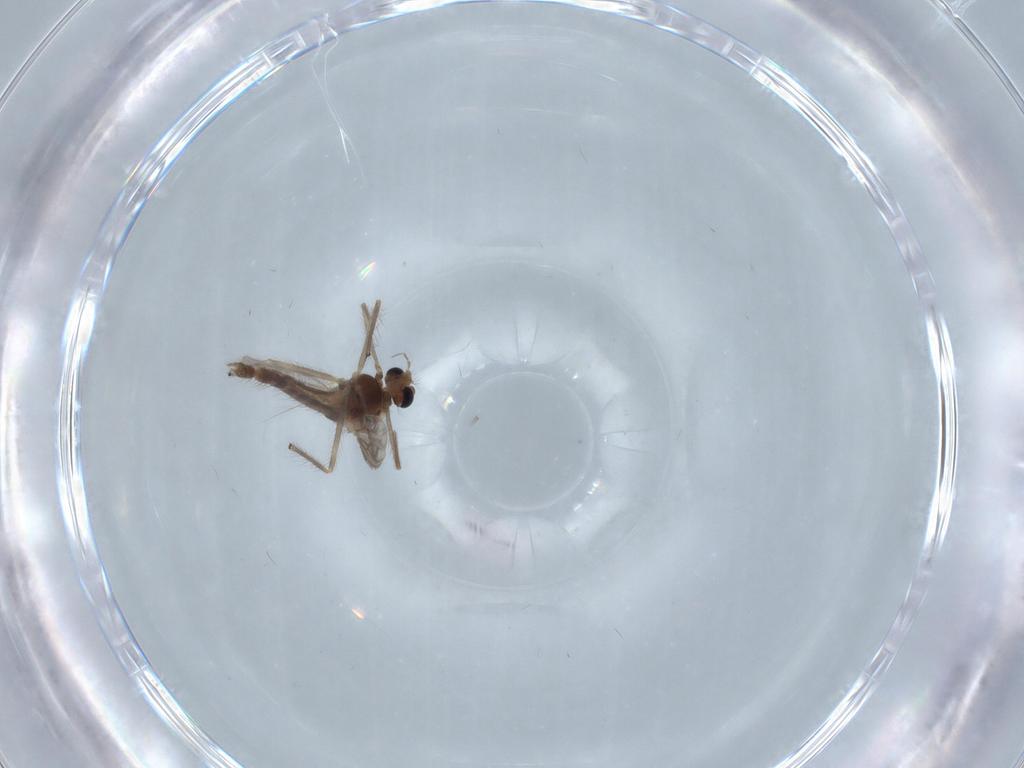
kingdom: Animalia
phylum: Arthropoda
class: Insecta
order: Diptera
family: Chironomidae
